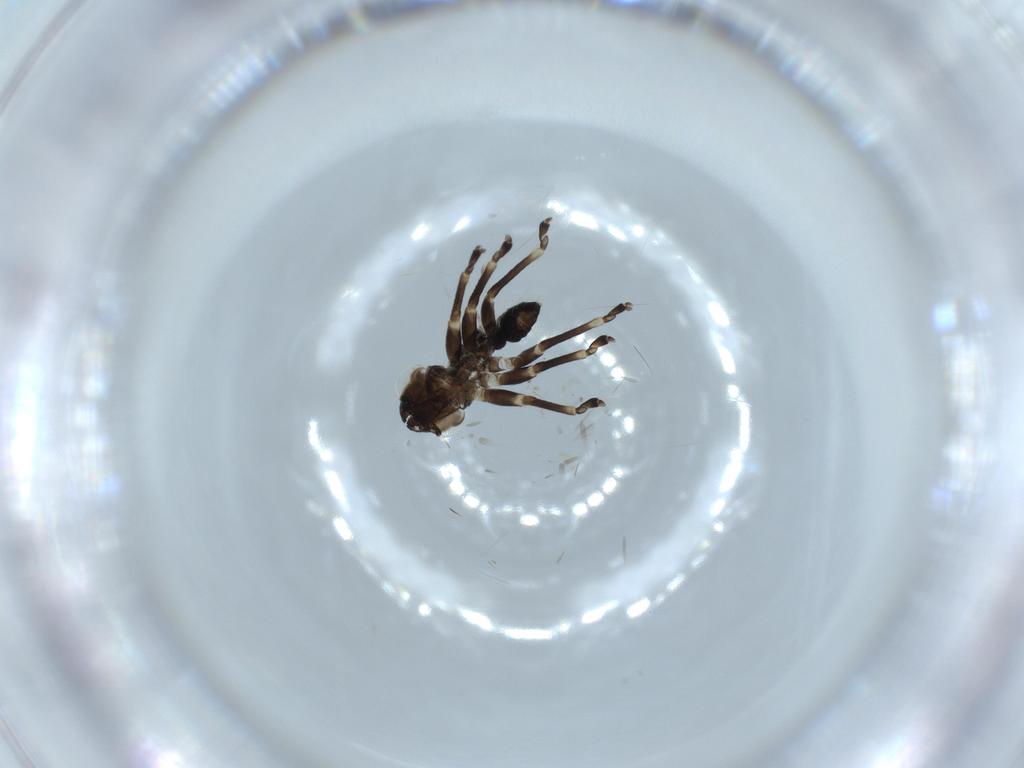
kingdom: Animalia
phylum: Arthropoda
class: Insecta
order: Hemiptera
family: Cicadellidae
